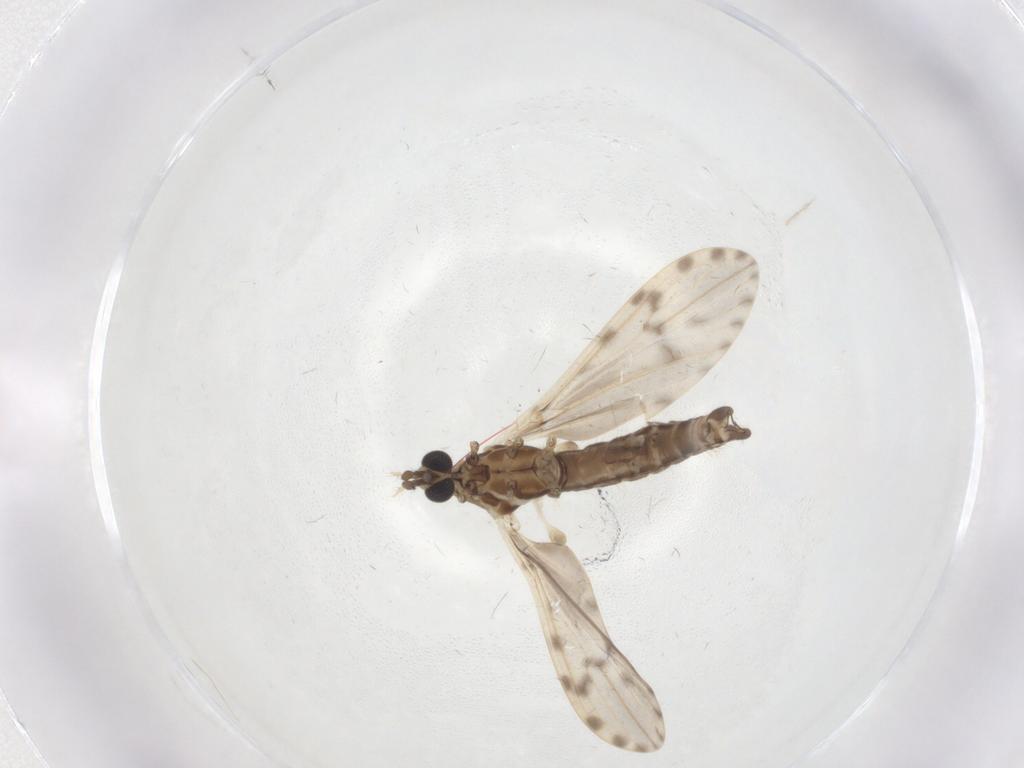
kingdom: Animalia
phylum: Arthropoda
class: Insecta
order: Diptera
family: Limoniidae
